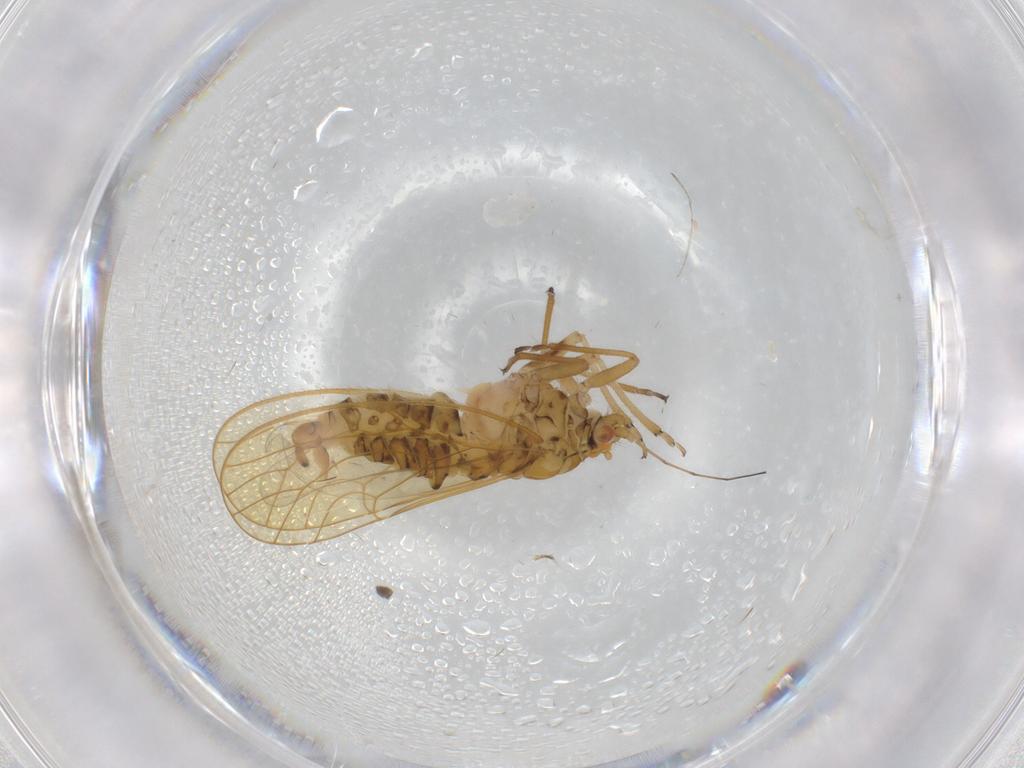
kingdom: Animalia
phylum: Arthropoda
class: Insecta
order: Hemiptera
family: Psyllidae
